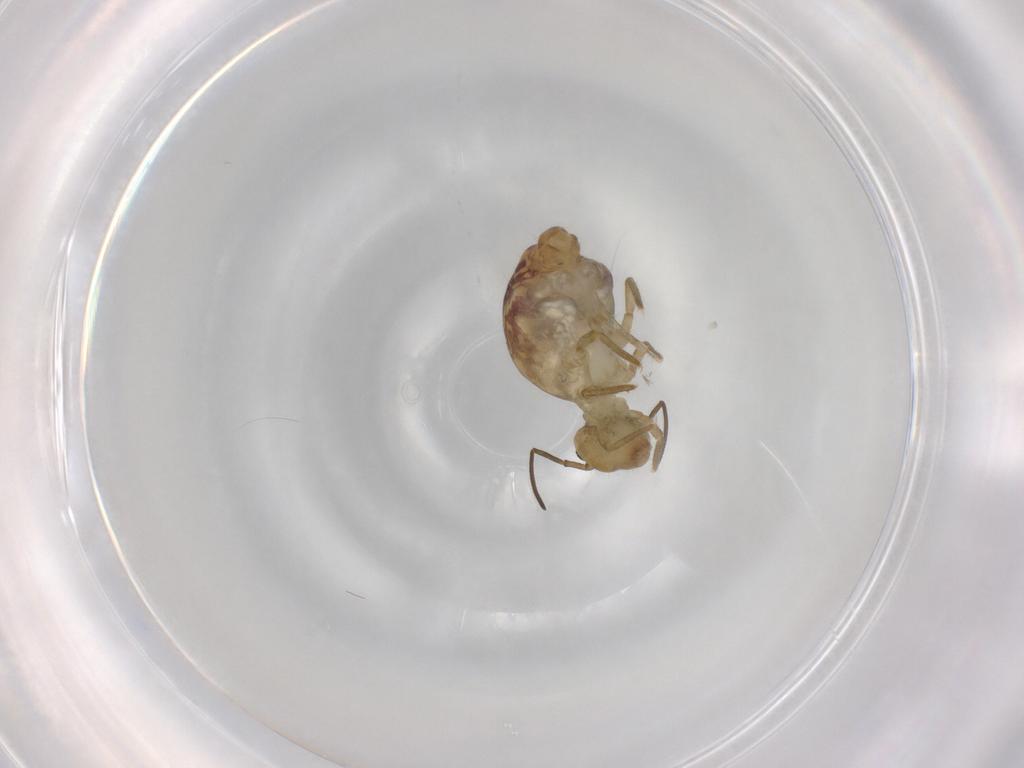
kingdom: Animalia
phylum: Arthropoda
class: Collembola
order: Symphypleona
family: Sminthuridae
